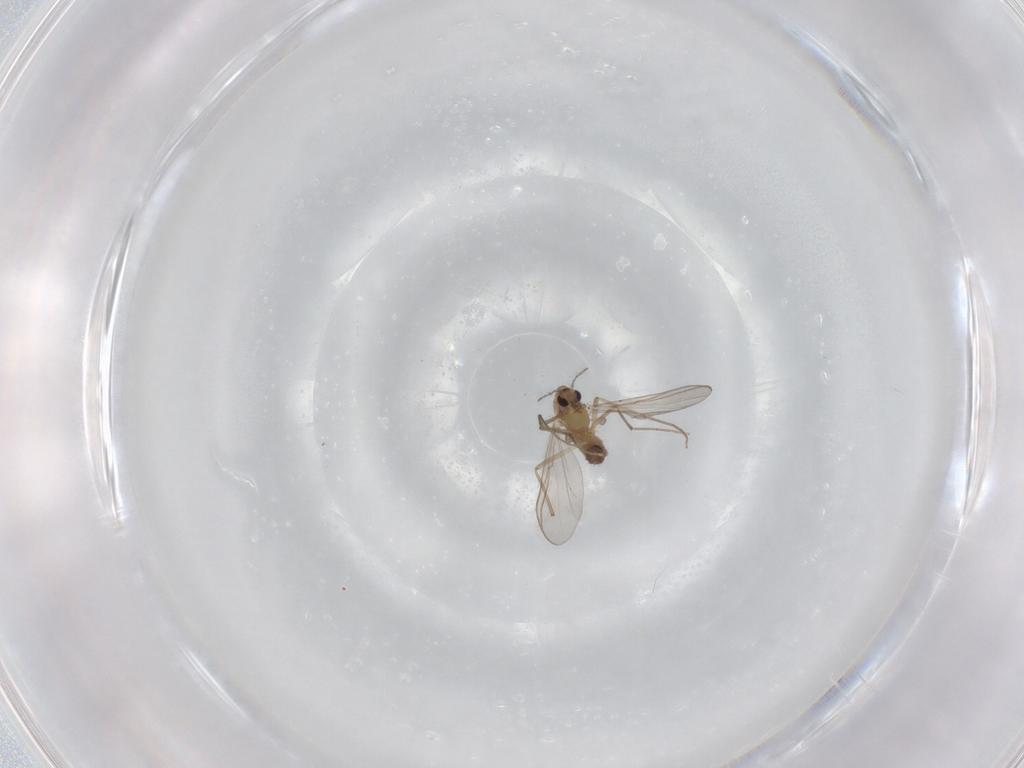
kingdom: Animalia
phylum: Arthropoda
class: Insecta
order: Diptera
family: Chironomidae
